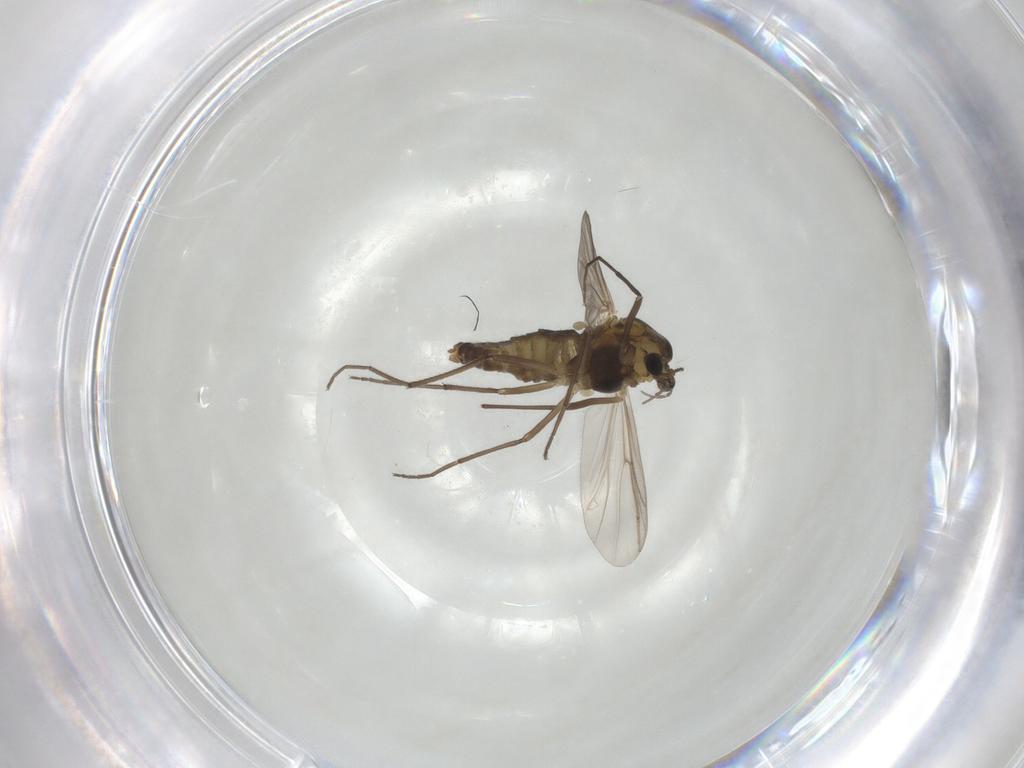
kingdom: Animalia
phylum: Arthropoda
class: Insecta
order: Diptera
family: Chironomidae
